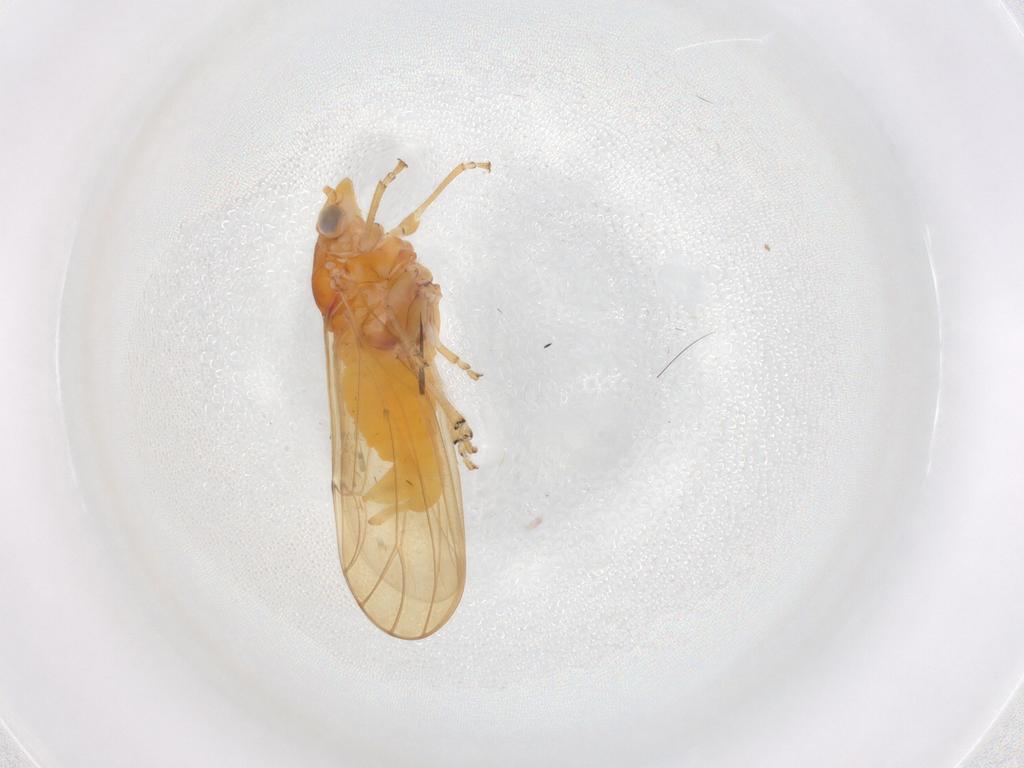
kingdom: Animalia
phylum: Arthropoda
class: Insecta
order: Hemiptera
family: Psylloidea_incertae_sedis
